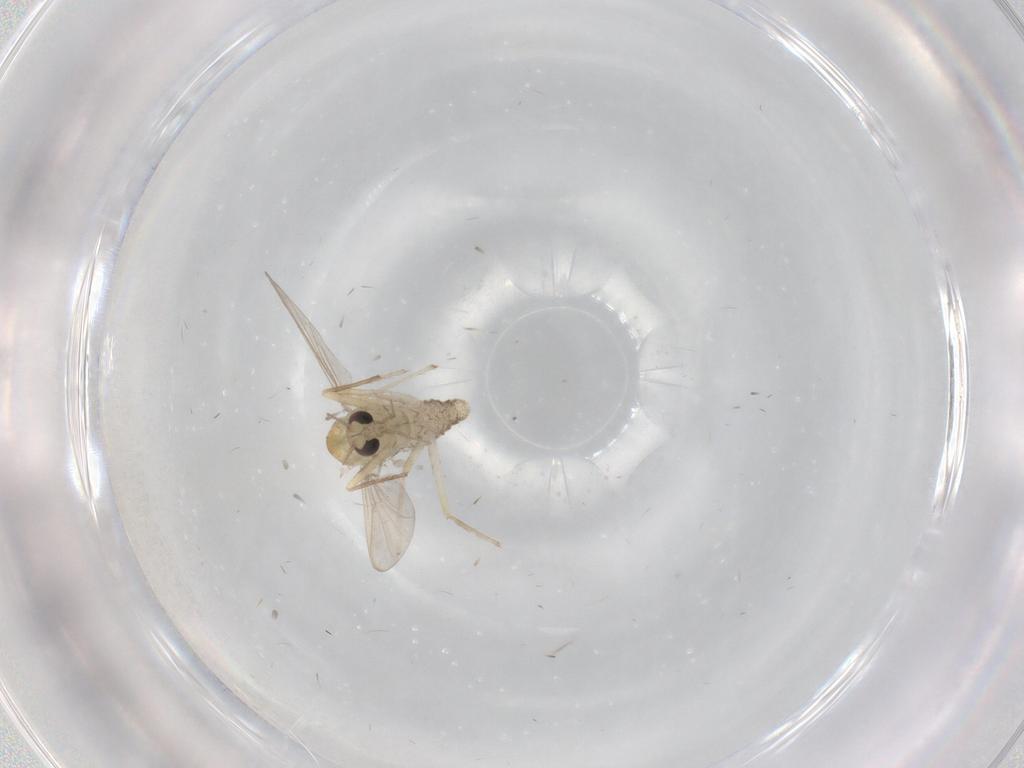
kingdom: Animalia
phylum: Arthropoda
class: Insecta
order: Diptera
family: Chironomidae
